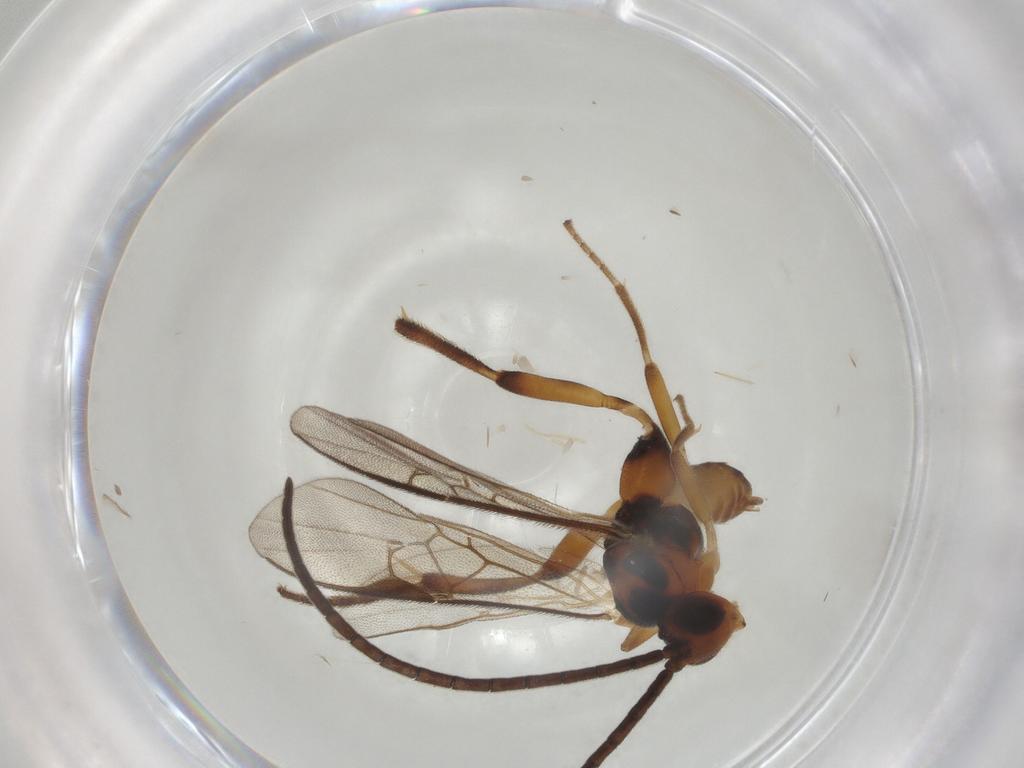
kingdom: Animalia
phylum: Arthropoda
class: Insecta
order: Hymenoptera
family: Braconidae
